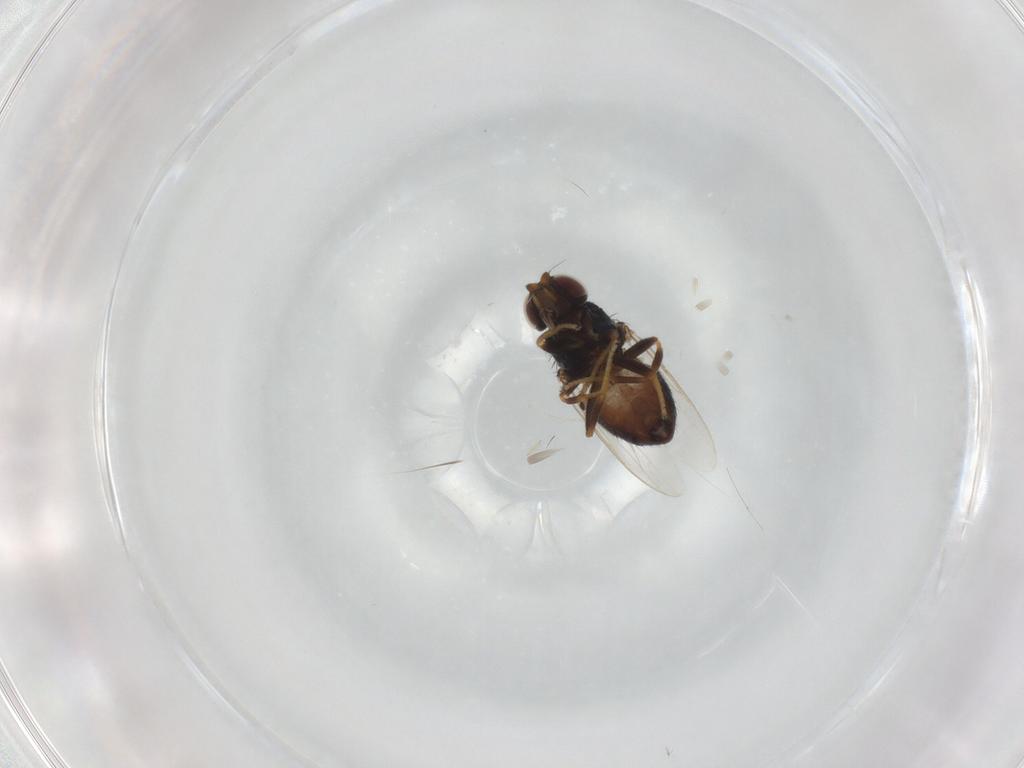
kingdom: Animalia
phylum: Arthropoda
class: Insecta
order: Diptera
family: Chloropidae
